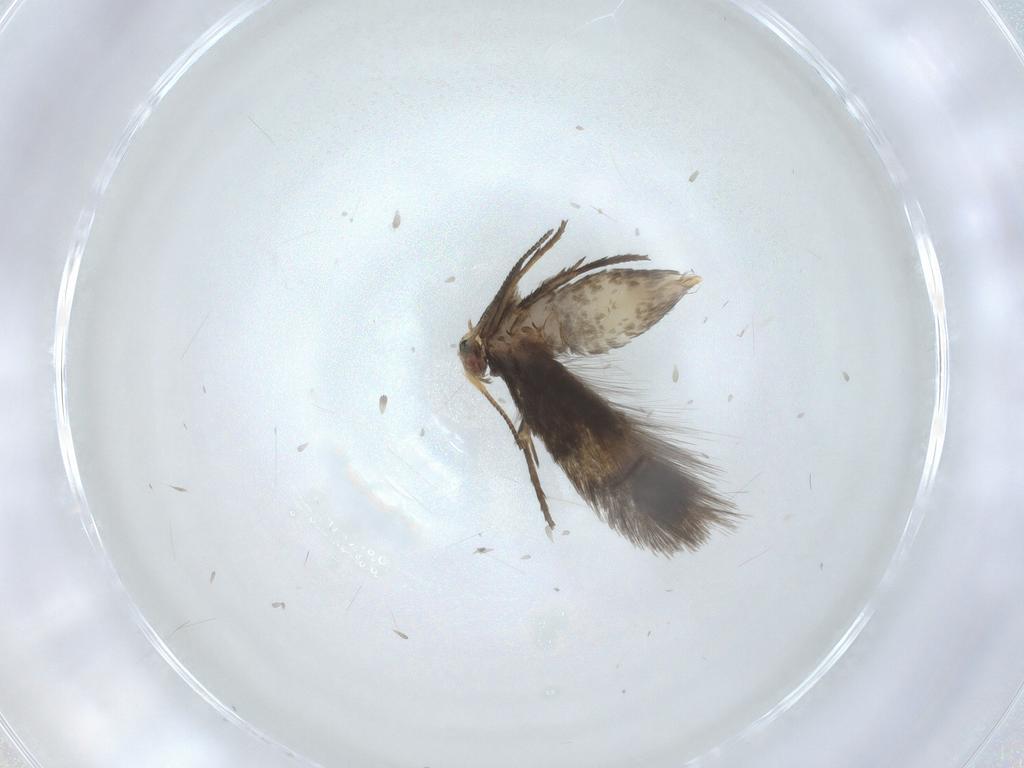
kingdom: Animalia
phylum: Arthropoda
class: Insecta
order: Lepidoptera
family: Nepticulidae
